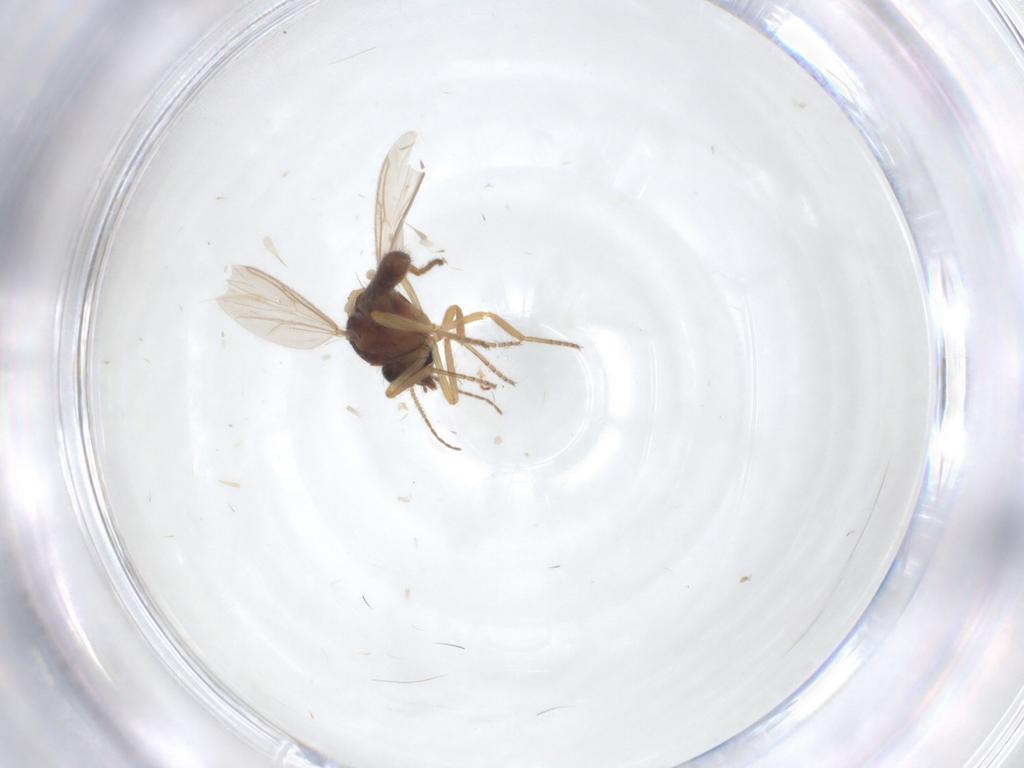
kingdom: Animalia
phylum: Arthropoda
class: Insecta
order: Diptera
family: Ceratopogonidae
